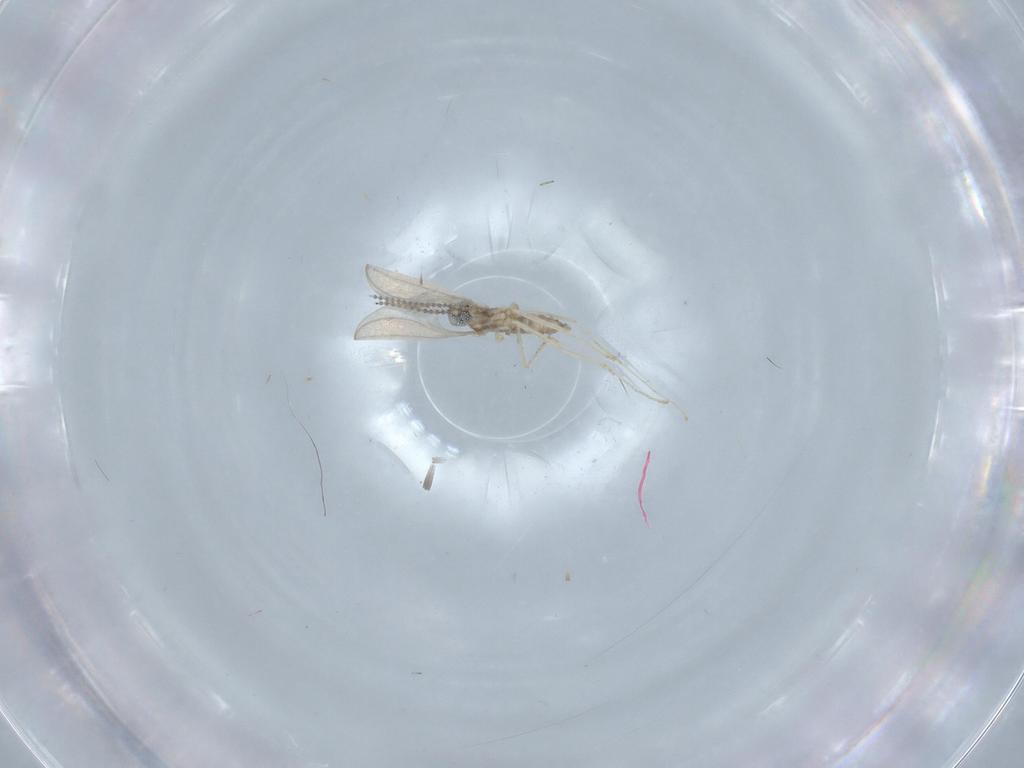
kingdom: Animalia
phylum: Arthropoda
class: Insecta
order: Diptera
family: Cecidomyiidae
